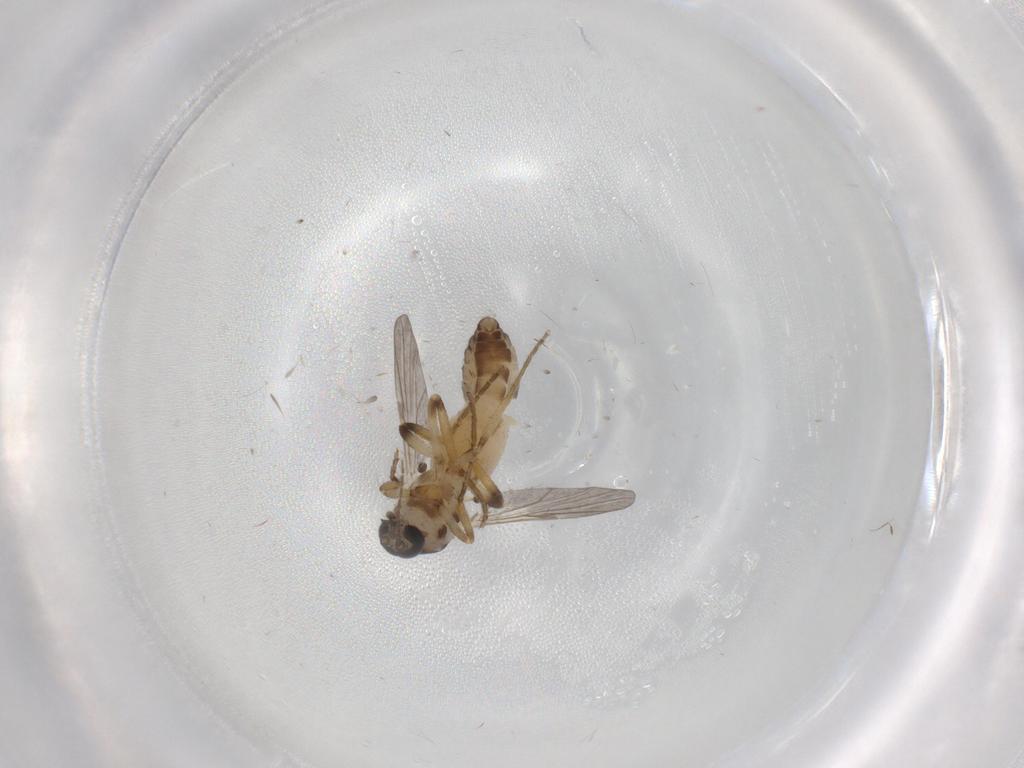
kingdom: Animalia
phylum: Arthropoda
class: Insecta
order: Diptera
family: Ceratopogonidae
